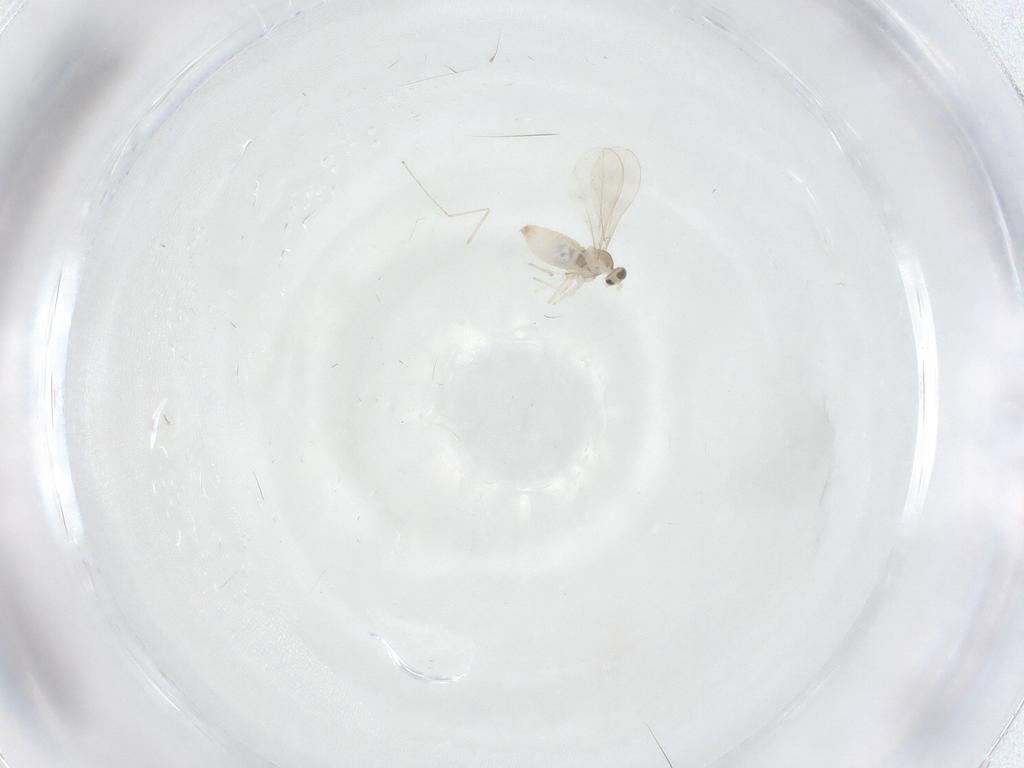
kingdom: Animalia
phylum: Arthropoda
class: Insecta
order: Diptera
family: Cecidomyiidae
